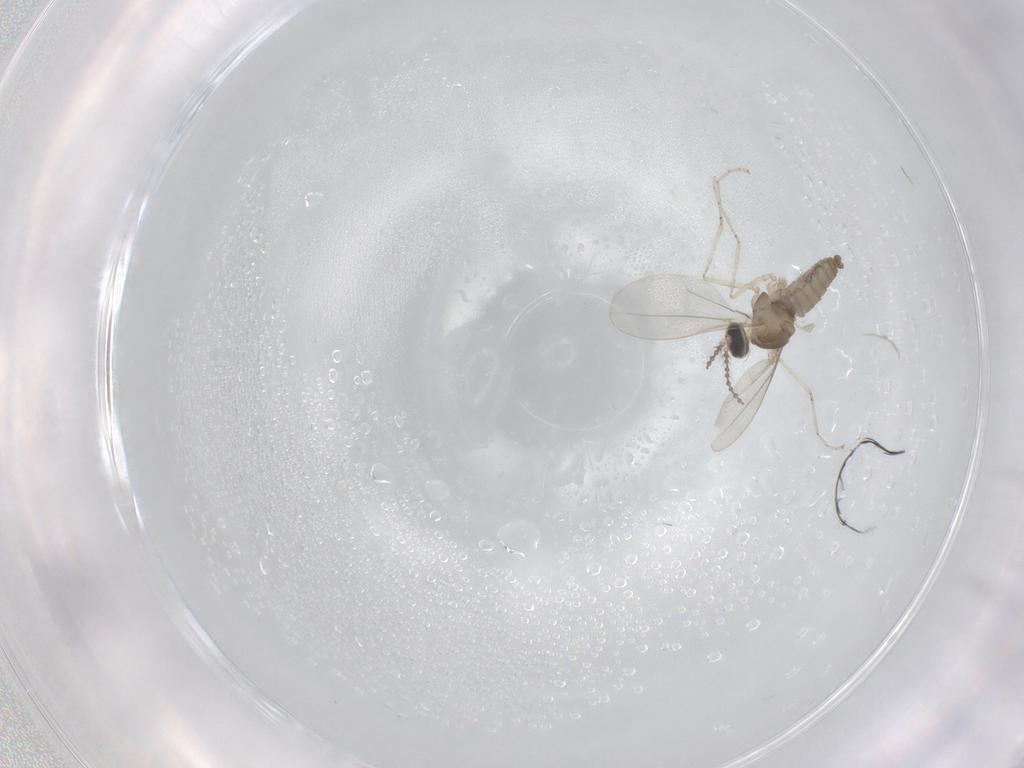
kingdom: Animalia
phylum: Arthropoda
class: Insecta
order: Diptera
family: Cecidomyiidae
